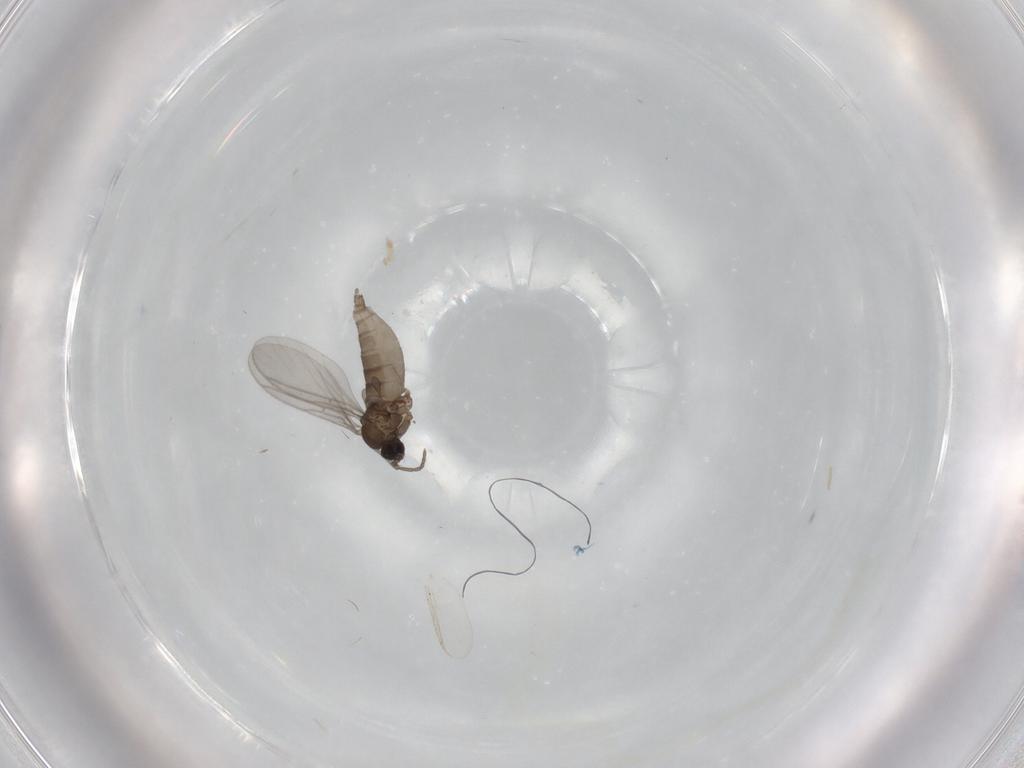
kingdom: Animalia
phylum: Arthropoda
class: Insecta
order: Diptera
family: Sciaridae
